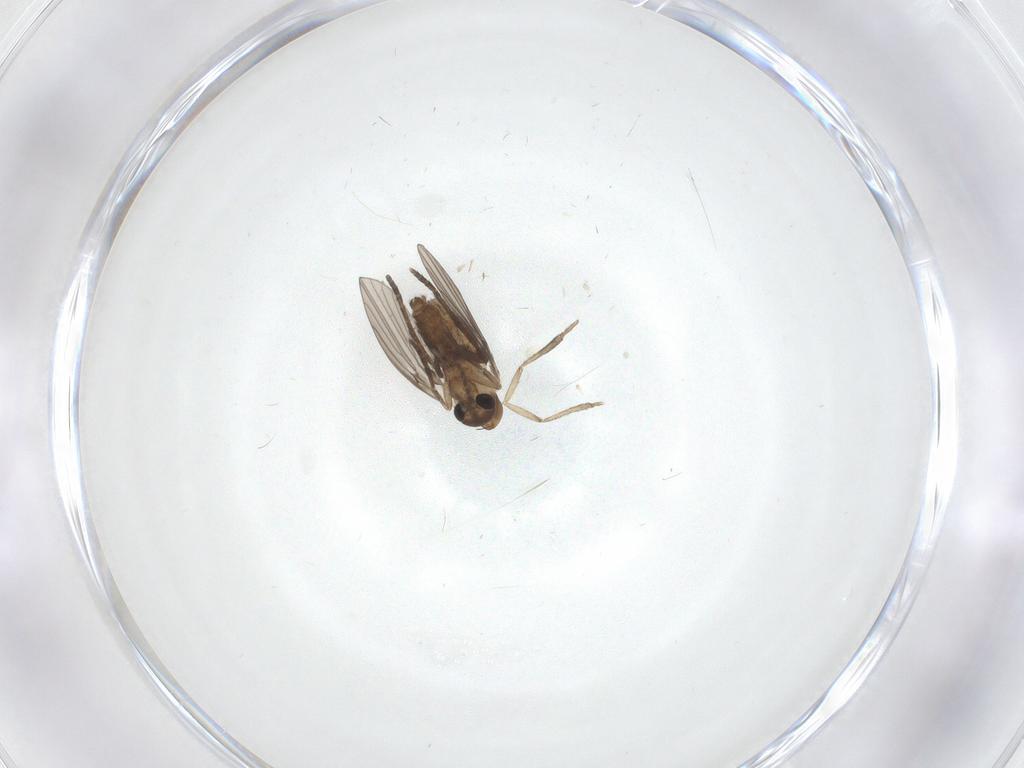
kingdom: Animalia
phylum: Arthropoda
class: Insecta
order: Diptera
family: Psychodidae
